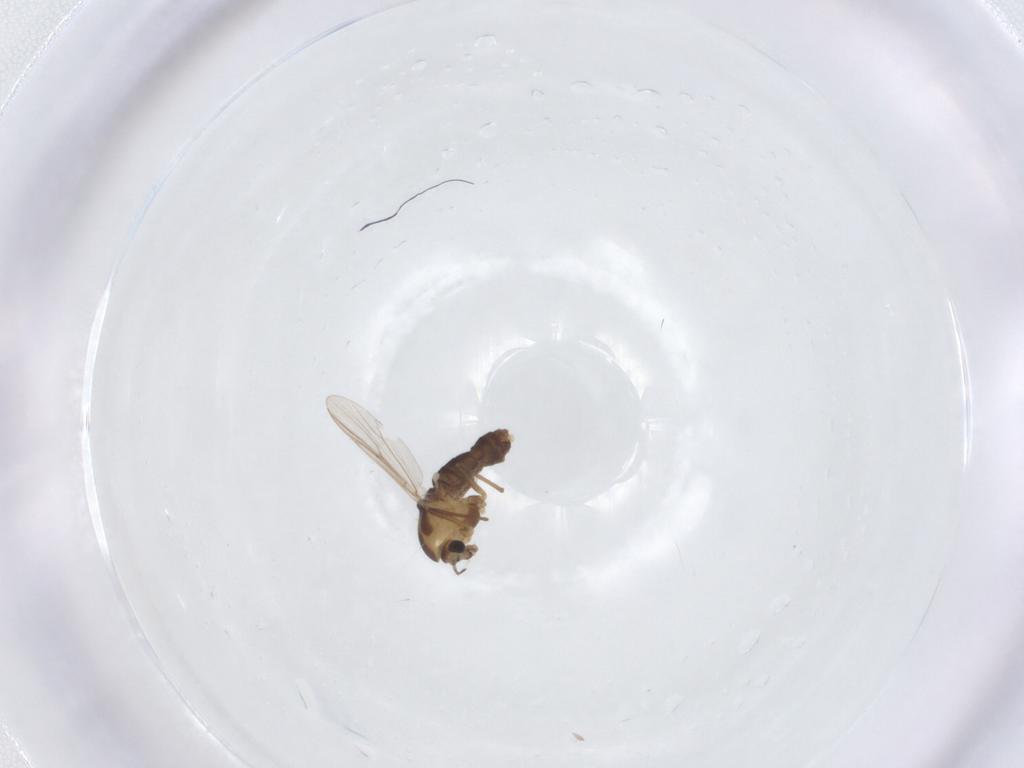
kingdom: Animalia
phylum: Arthropoda
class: Insecta
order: Diptera
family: Chironomidae
